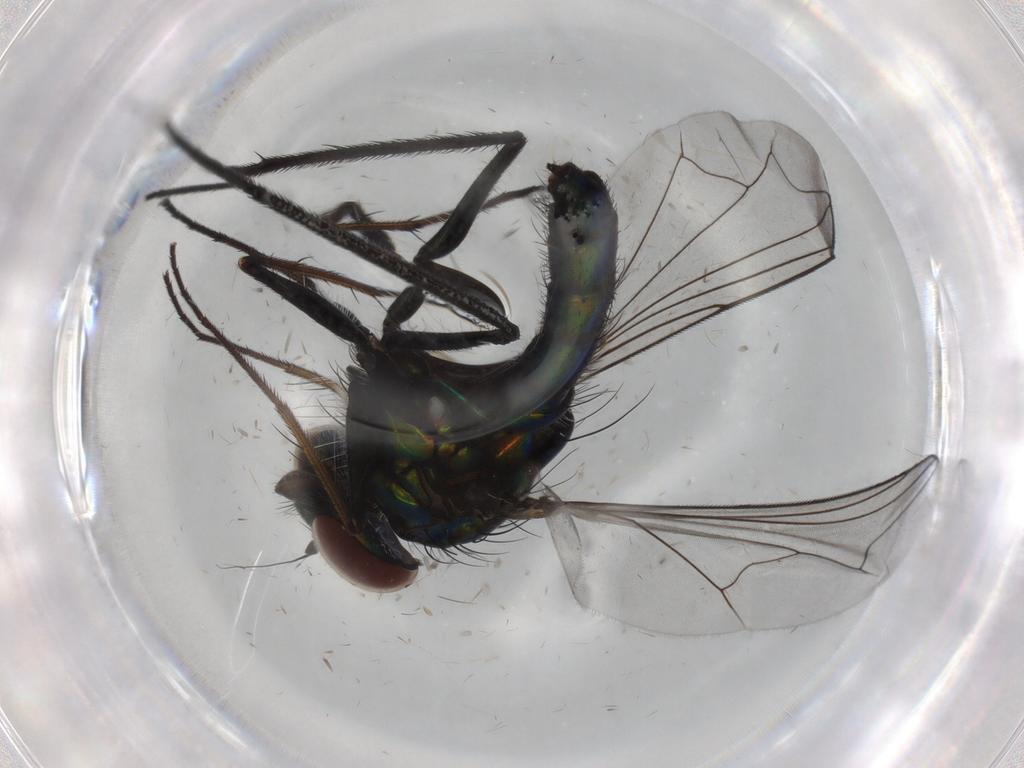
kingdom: Animalia
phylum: Arthropoda
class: Insecta
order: Diptera
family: Dolichopodidae
